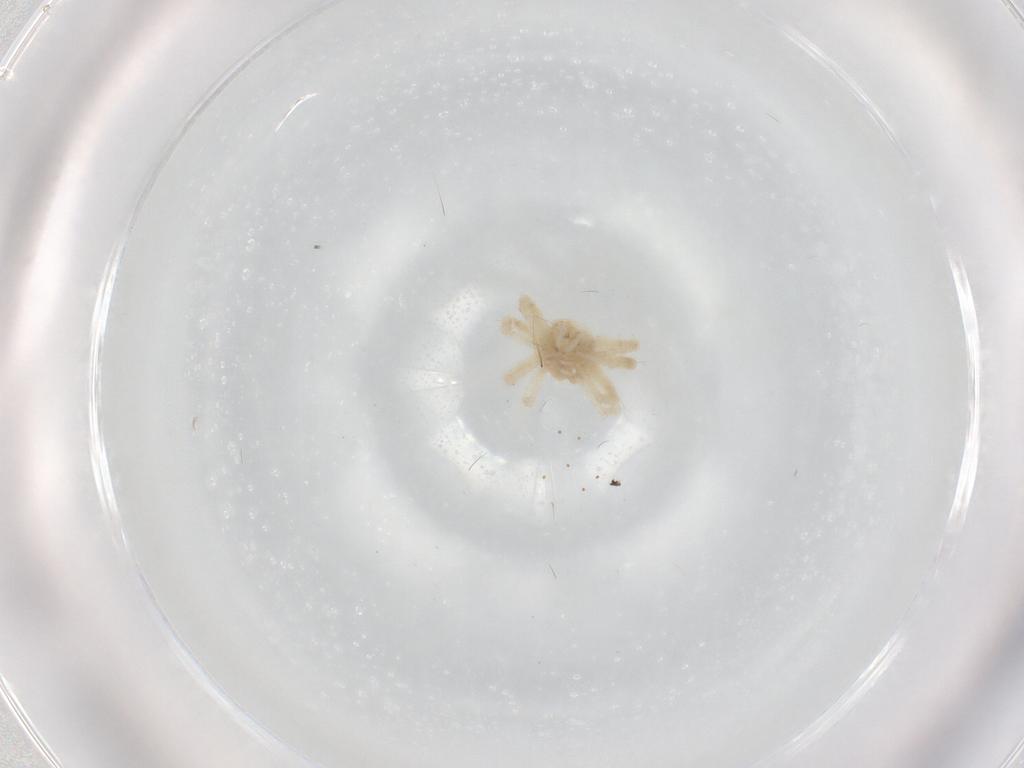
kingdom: Animalia
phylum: Arthropoda
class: Arachnida
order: Trombidiformes
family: Anystidae
